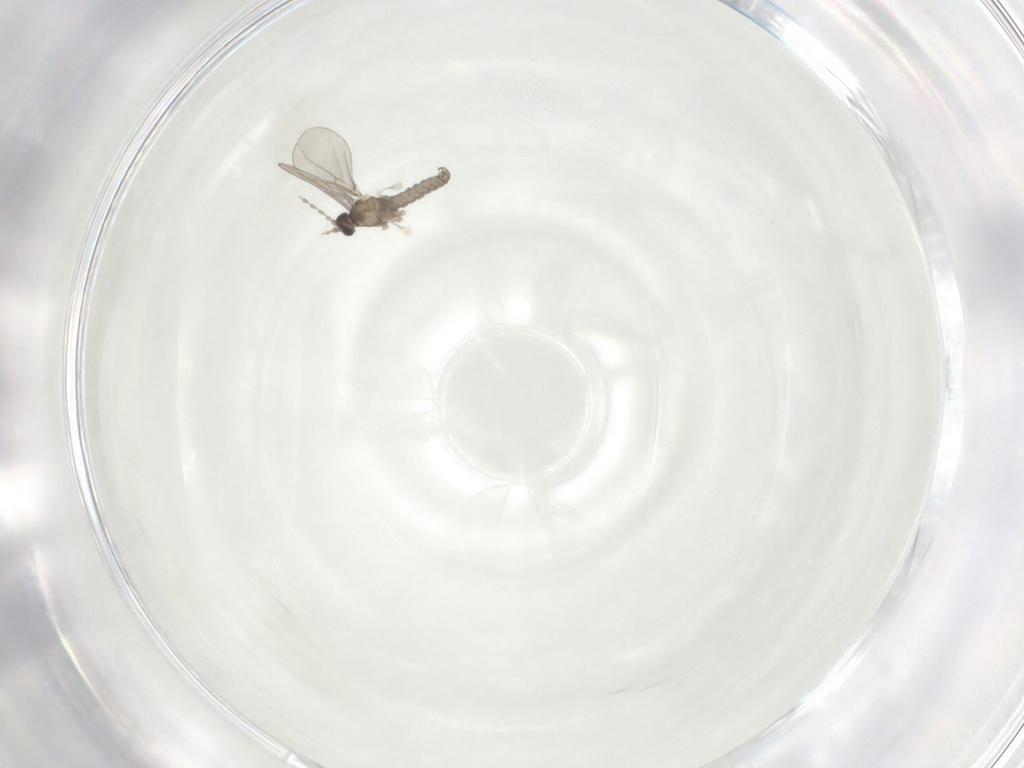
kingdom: Animalia
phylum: Arthropoda
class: Insecta
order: Diptera
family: Cecidomyiidae
